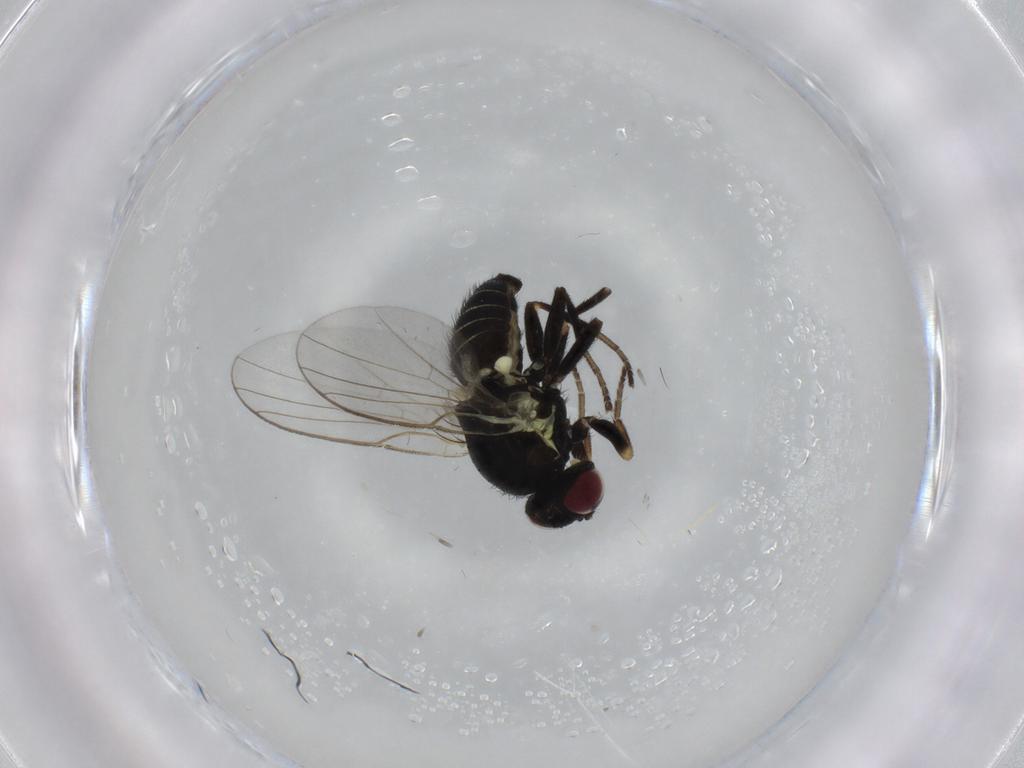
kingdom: Animalia
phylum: Arthropoda
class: Insecta
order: Diptera
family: Agromyzidae
